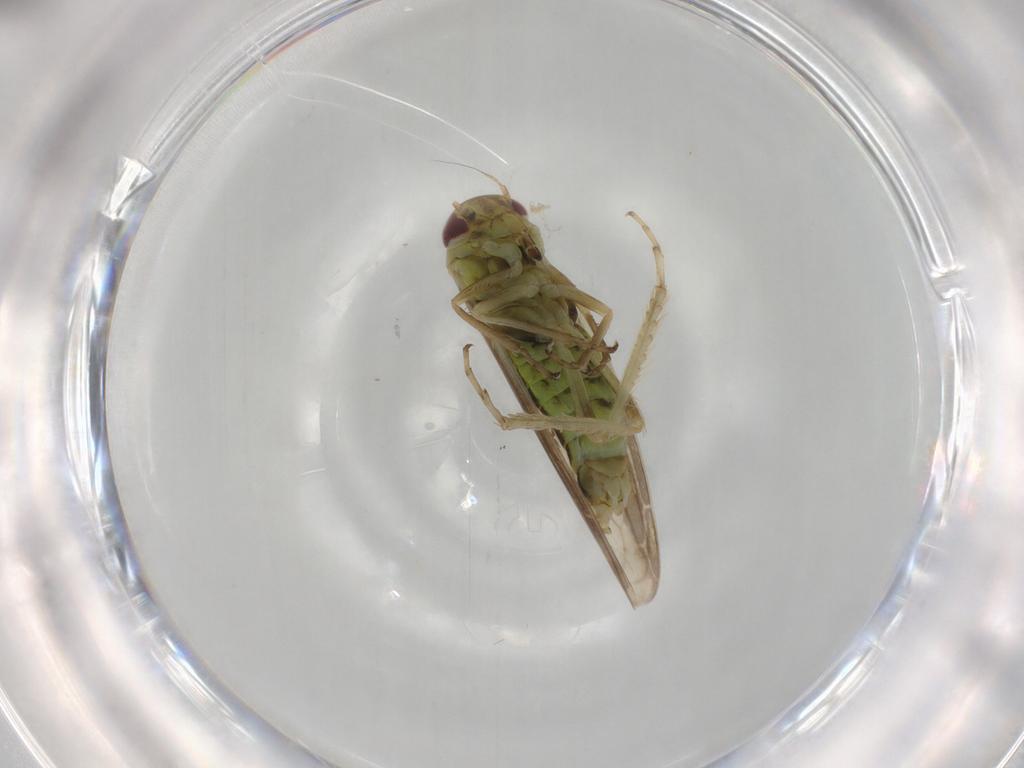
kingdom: Animalia
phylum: Arthropoda
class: Insecta
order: Hemiptera
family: Cicadellidae
